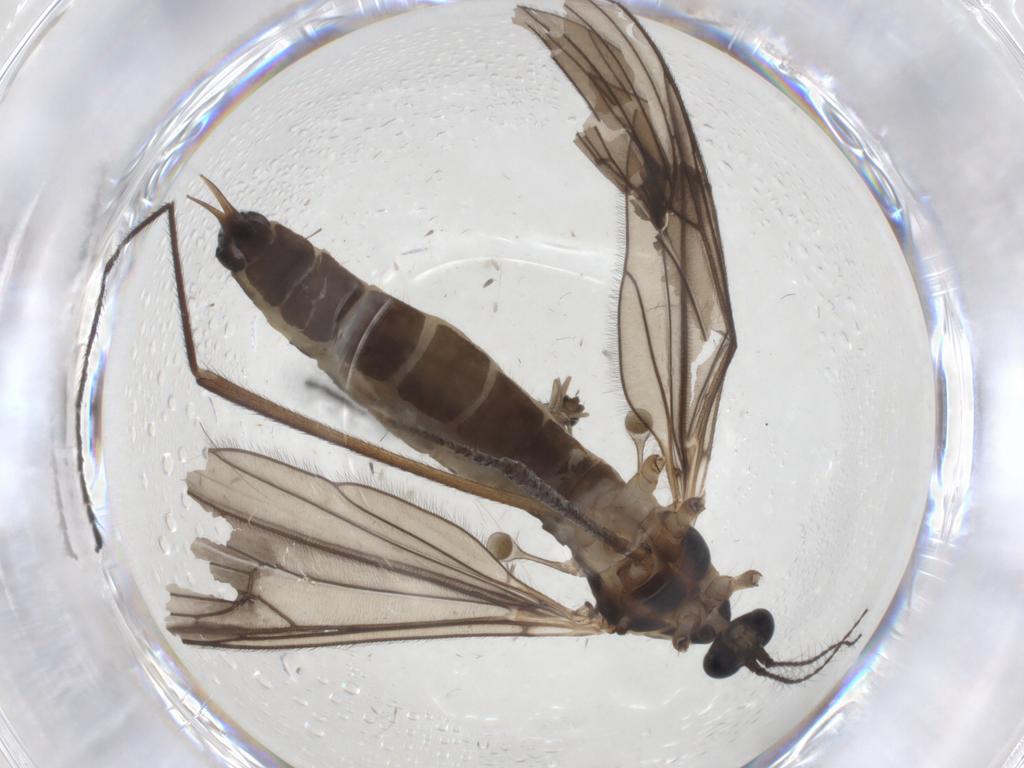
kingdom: Animalia
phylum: Arthropoda
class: Insecta
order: Diptera
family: Limoniidae
